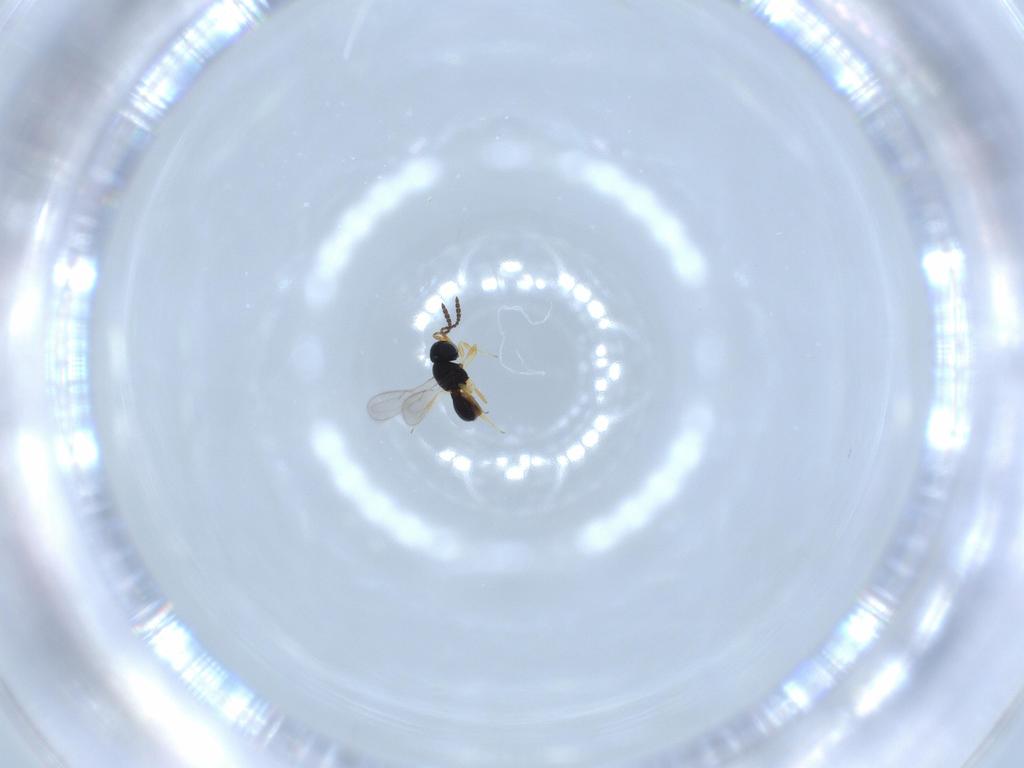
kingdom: Animalia
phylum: Arthropoda
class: Insecta
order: Hymenoptera
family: Scelionidae
